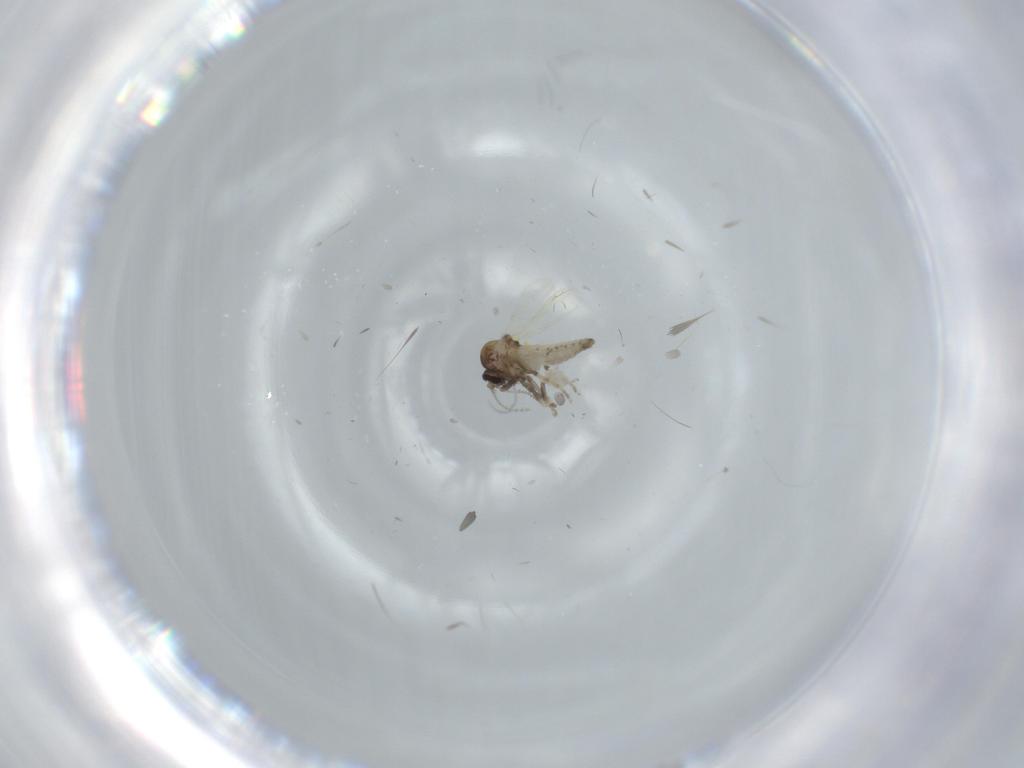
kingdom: Animalia
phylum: Arthropoda
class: Insecta
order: Diptera
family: Ceratopogonidae
